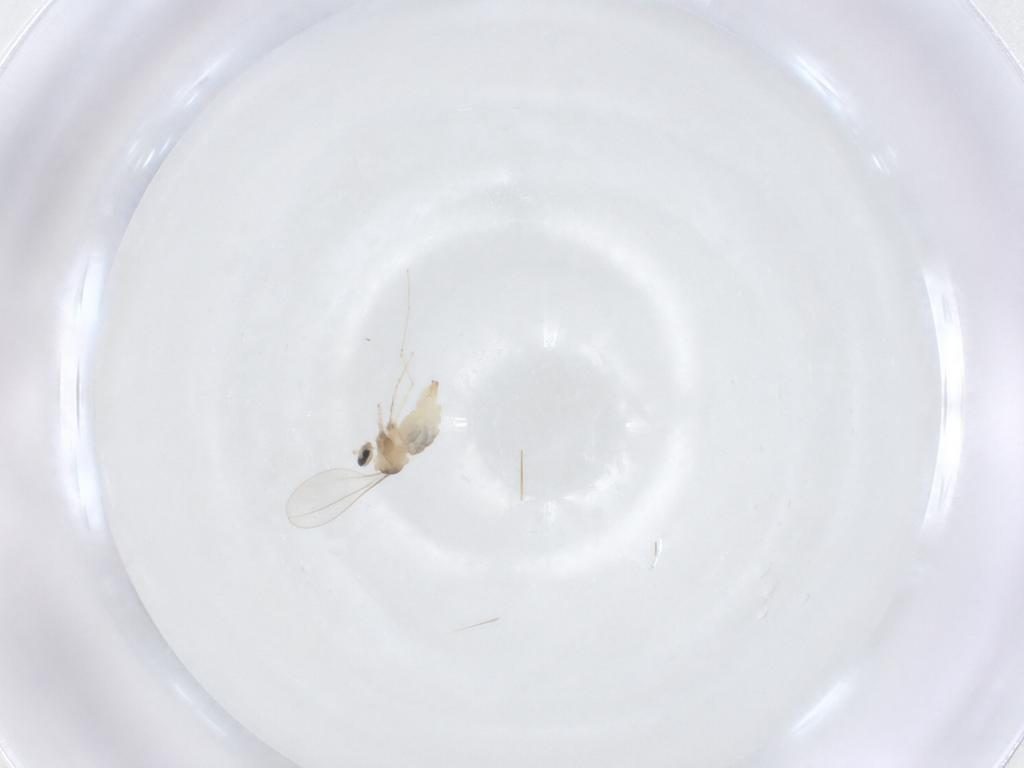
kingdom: Animalia
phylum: Arthropoda
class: Insecta
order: Diptera
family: Cecidomyiidae
